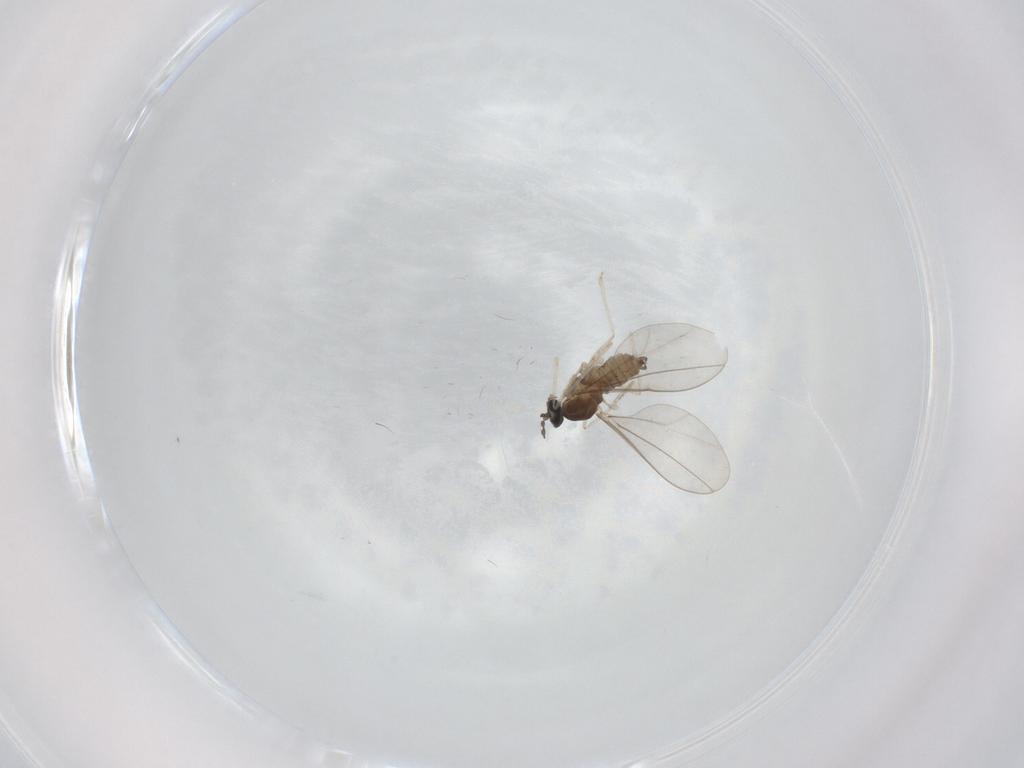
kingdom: Animalia
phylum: Arthropoda
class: Insecta
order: Diptera
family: Cecidomyiidae
